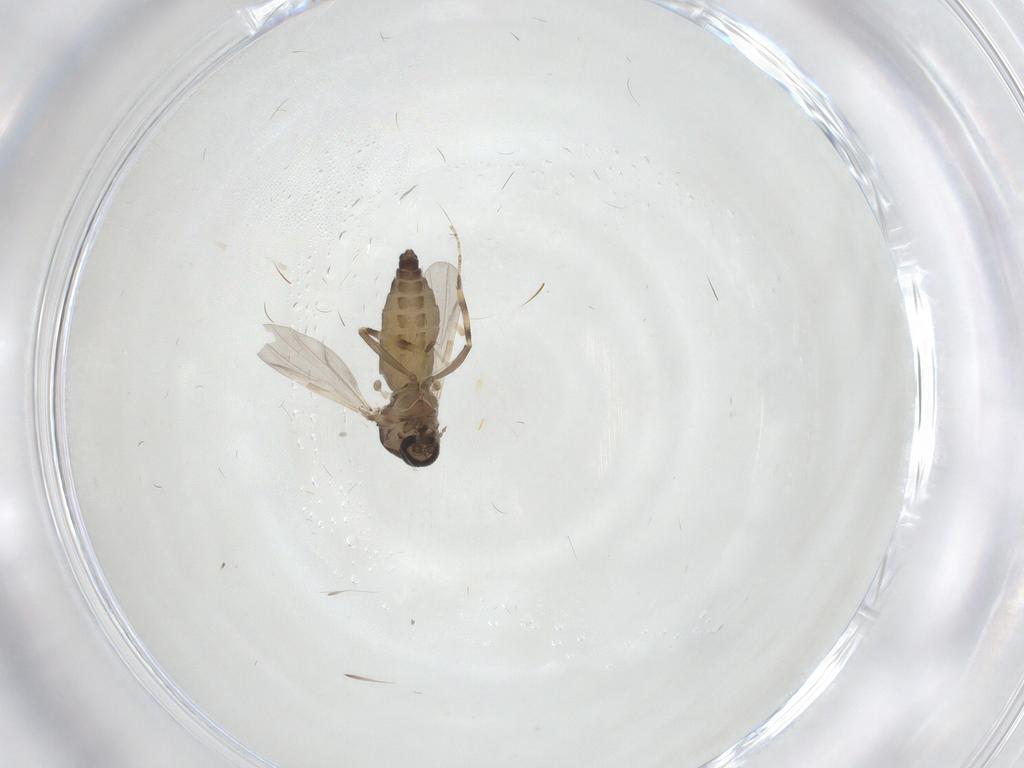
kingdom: Animalia
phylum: Arthropoda
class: Insecta
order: Diptera
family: Ceratopogonidae
